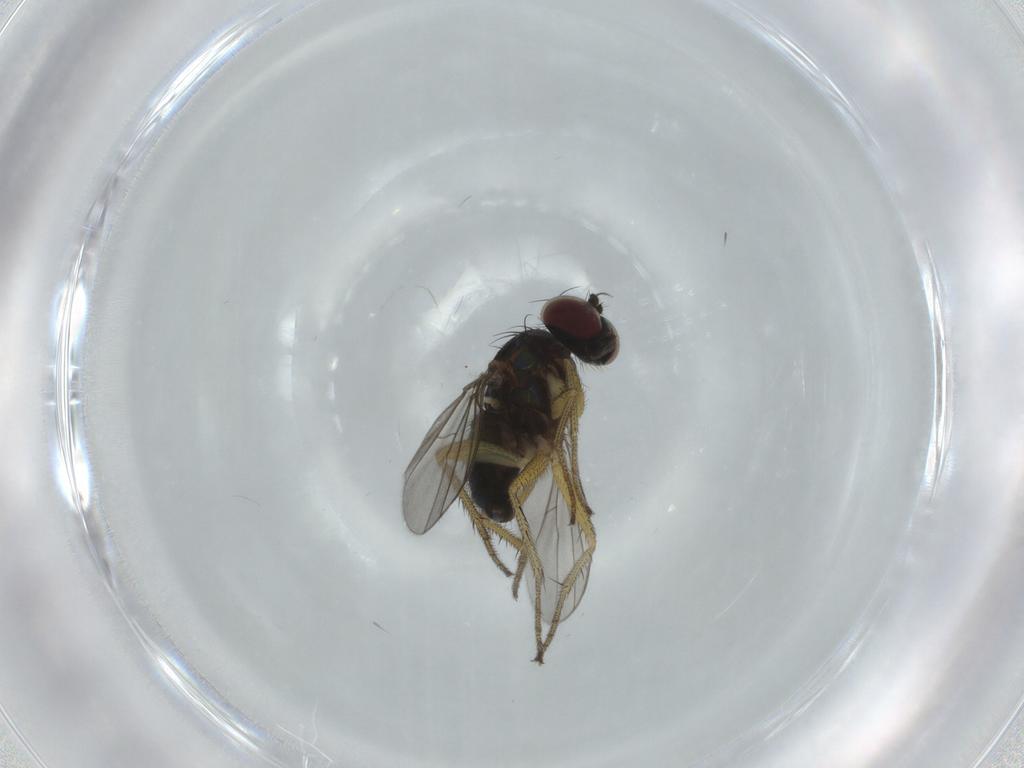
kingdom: Animalia
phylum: Arthropoda
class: Insecta
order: Diptera
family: Dolichopodidae
